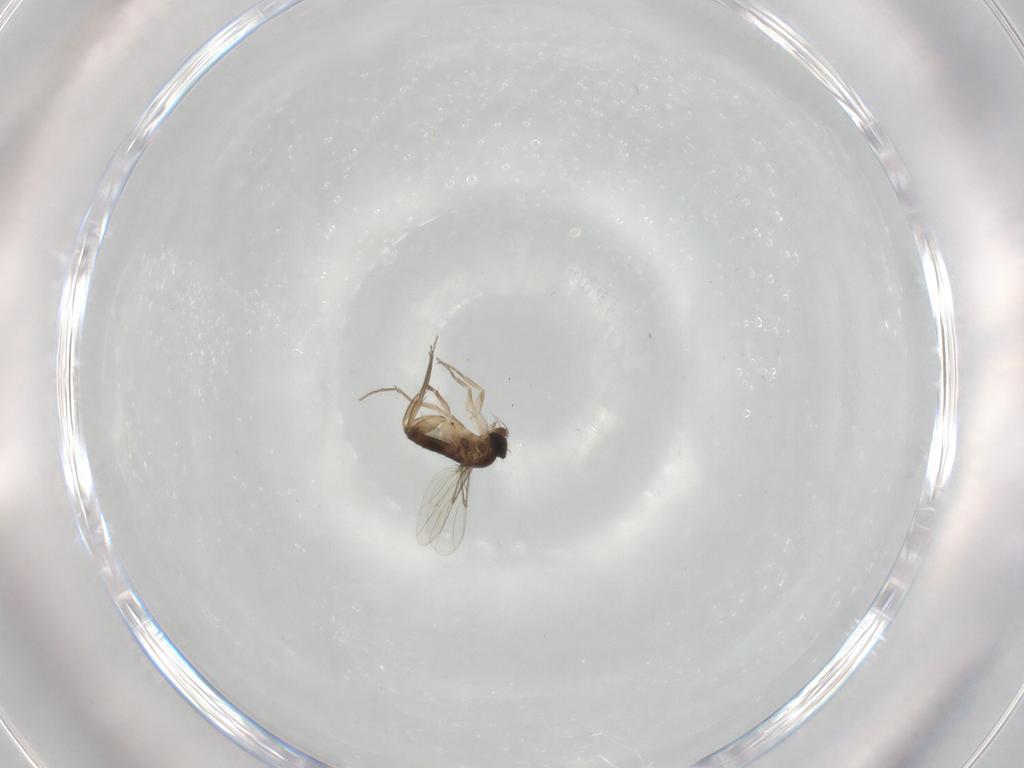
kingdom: Animalia
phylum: Arthropoda
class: Insecta
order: Diptera
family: Phoridae
